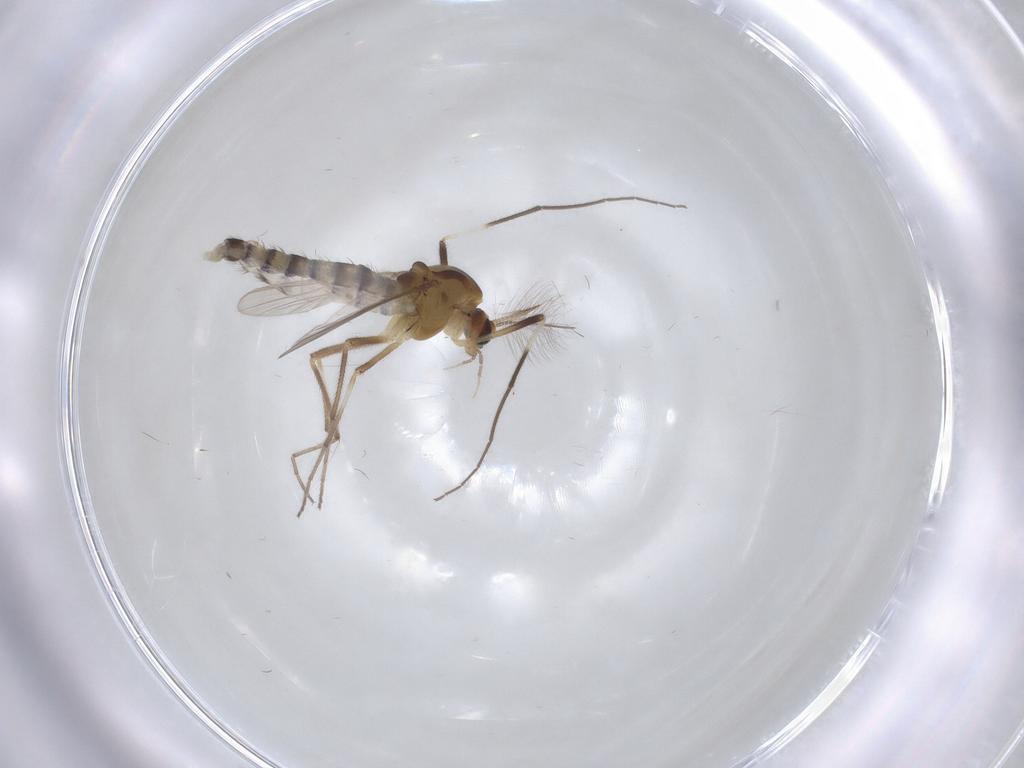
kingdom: Animalia
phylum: Arthropoda
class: Insecta
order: Diptera
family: Chironomidae
